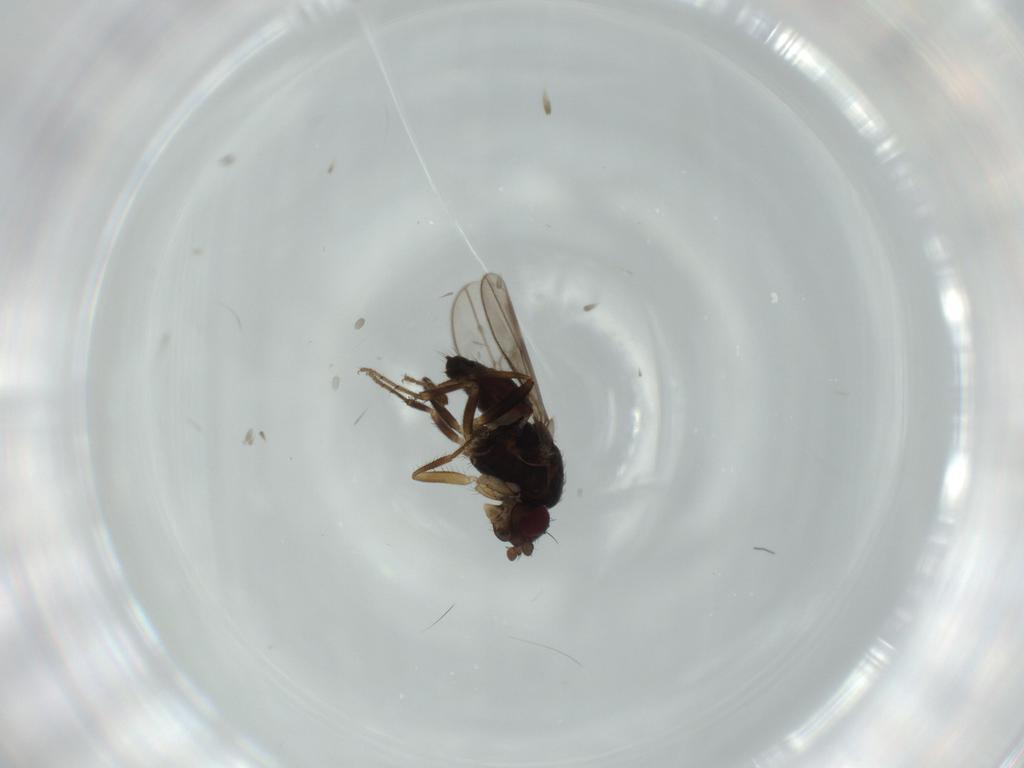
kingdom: Animalia
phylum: Arthropoda
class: Insecta
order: Diptera
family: Sphaeroceridae
